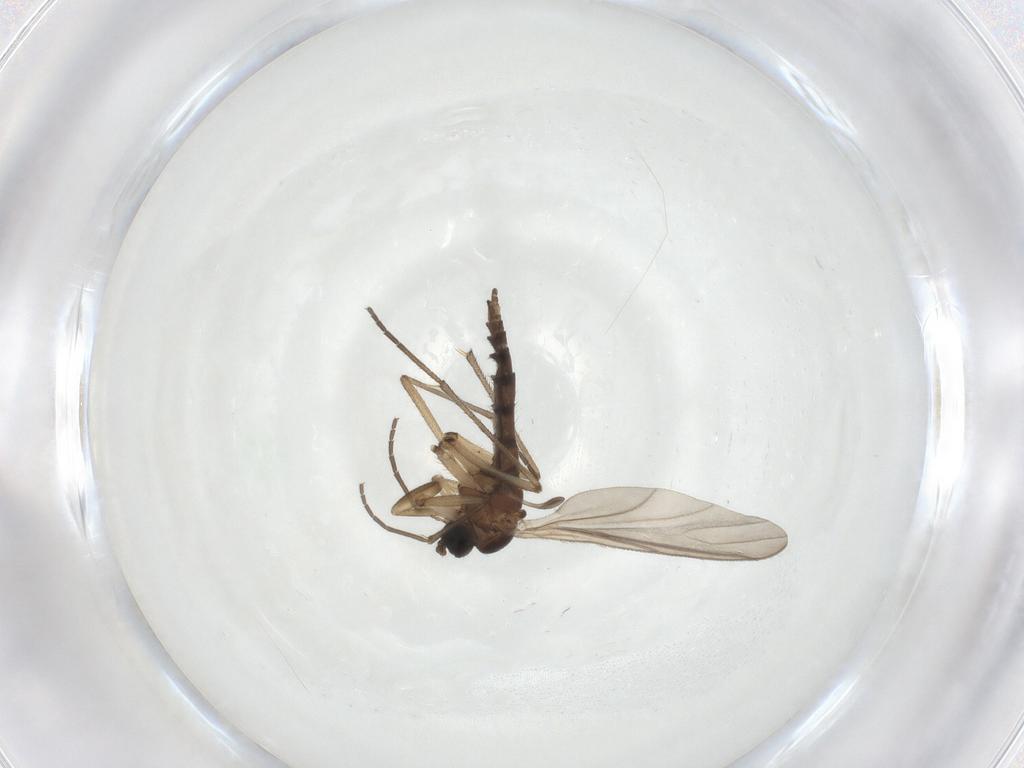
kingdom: Animalia
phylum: Arthropoda
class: Insecta
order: Diptera
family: Sciaridae
